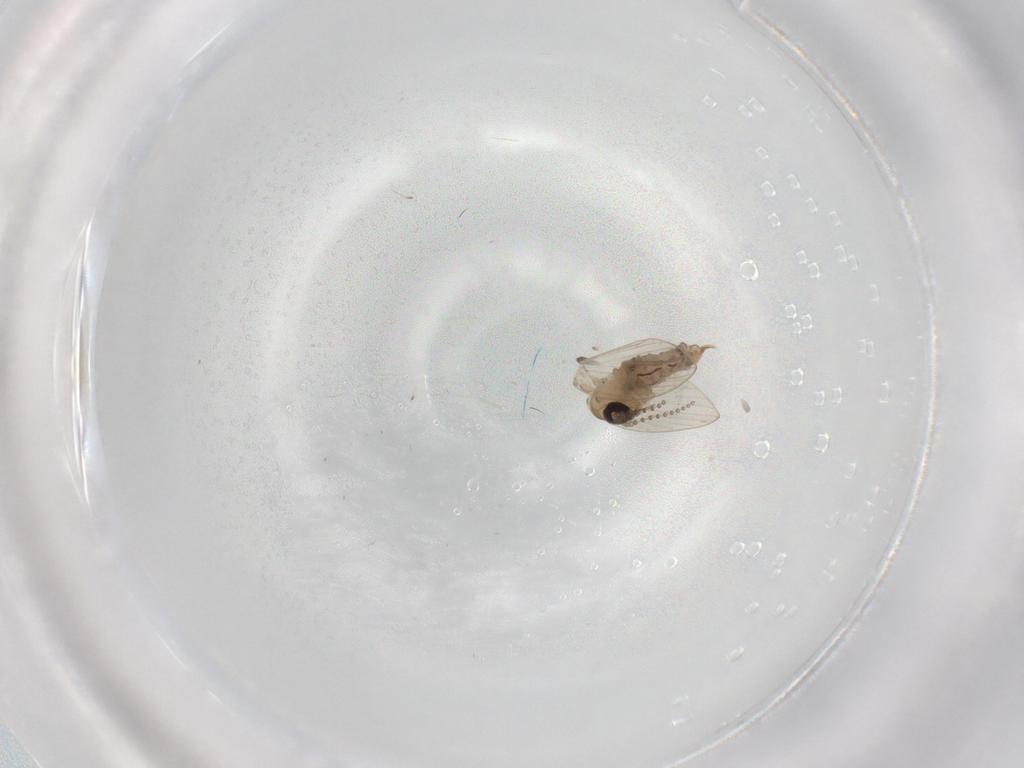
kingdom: Animalia
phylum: Arthropoda
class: Insecta
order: Diptera
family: Psychodidae
